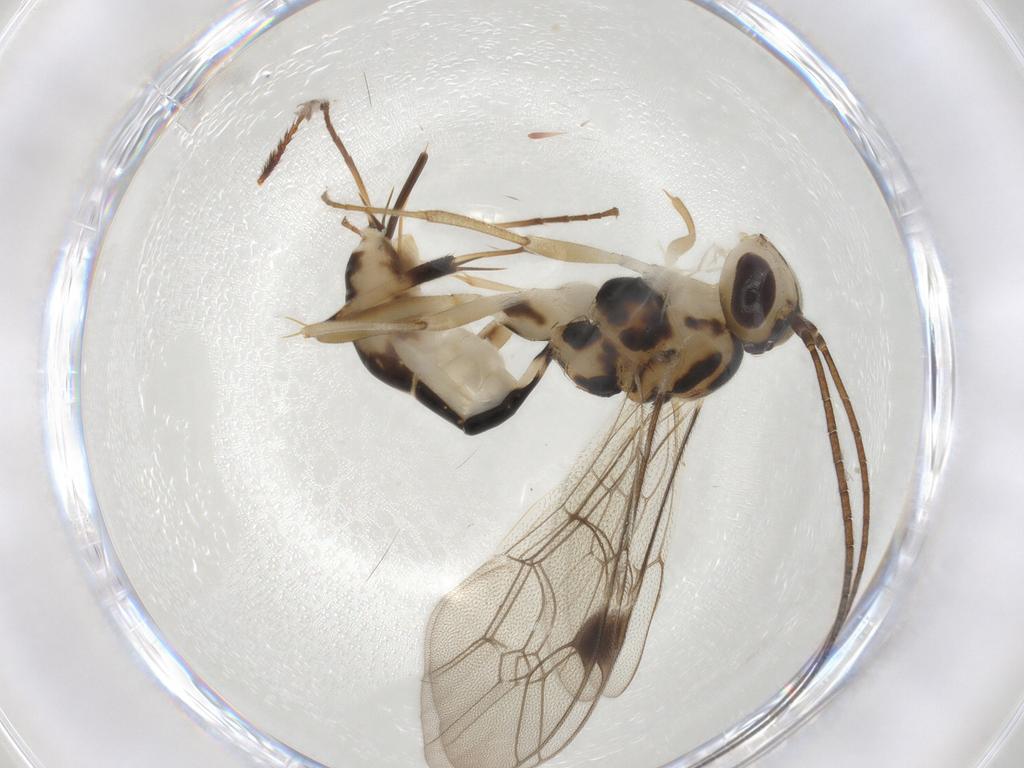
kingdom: Animalia
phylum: Arthropoda
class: Insecta
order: Hymenoptera
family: Ichneumonidae
